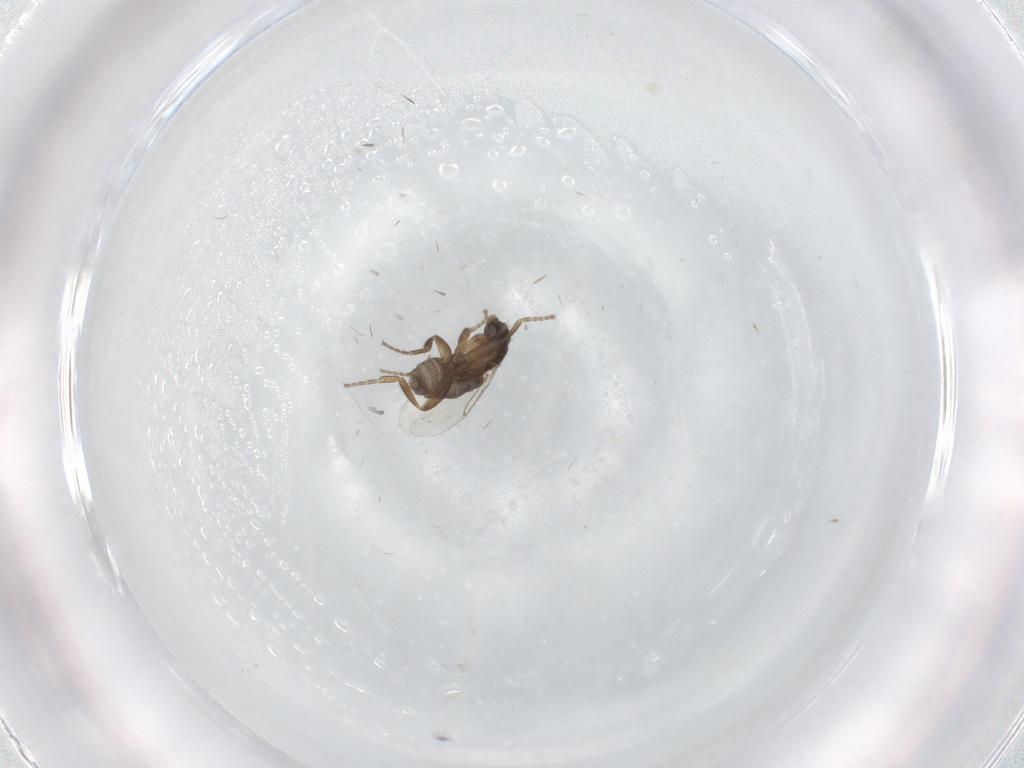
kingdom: Animalia
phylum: Arthropoda
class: Insecta
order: Diptera
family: Phoridae
